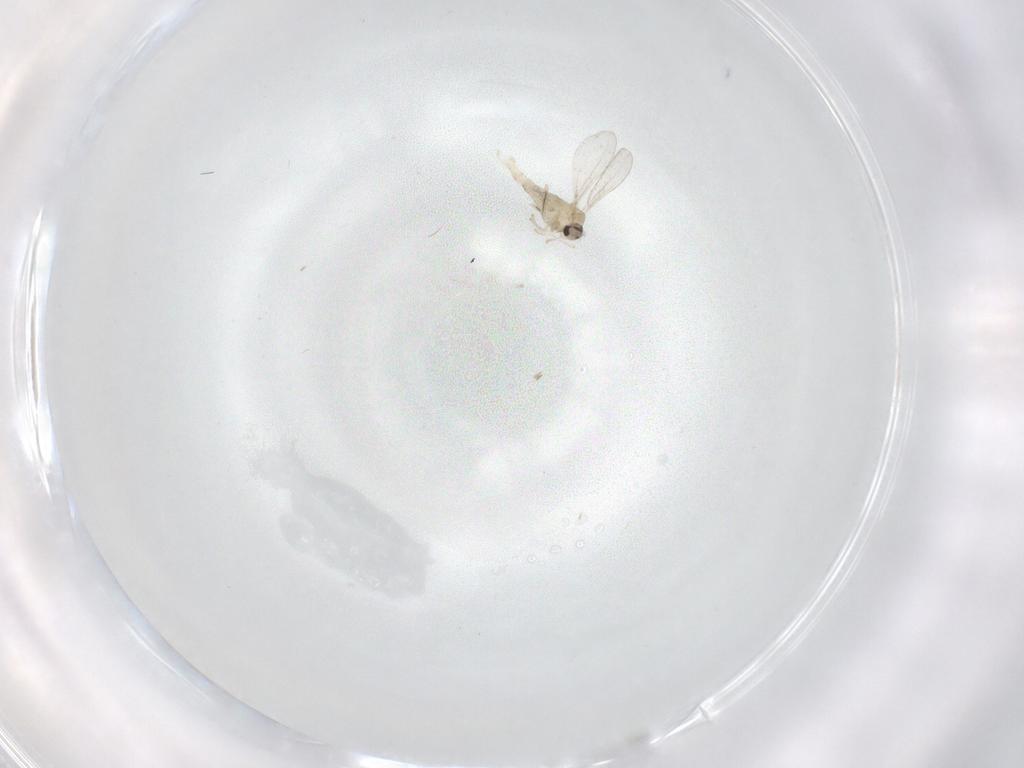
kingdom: Animalia
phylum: Arthropoda
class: Insecta
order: Diptera
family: Cecidomyiidae
